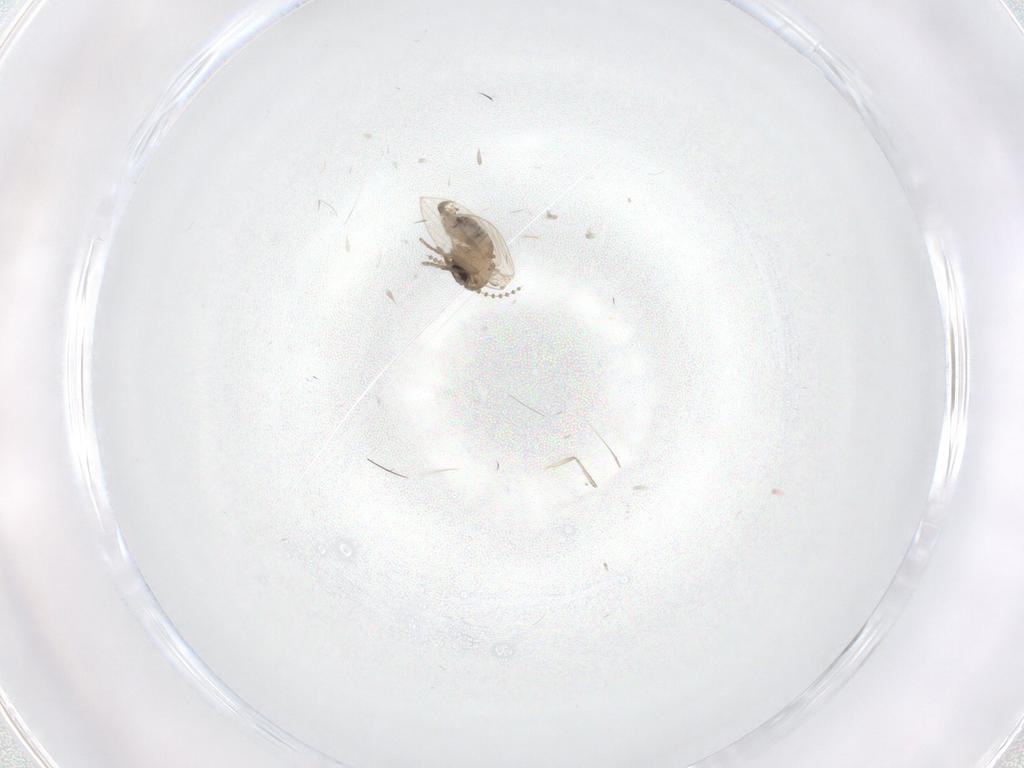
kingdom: Animalia
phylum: Arthropoda
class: Insecta
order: Diptera
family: Psychodidae
